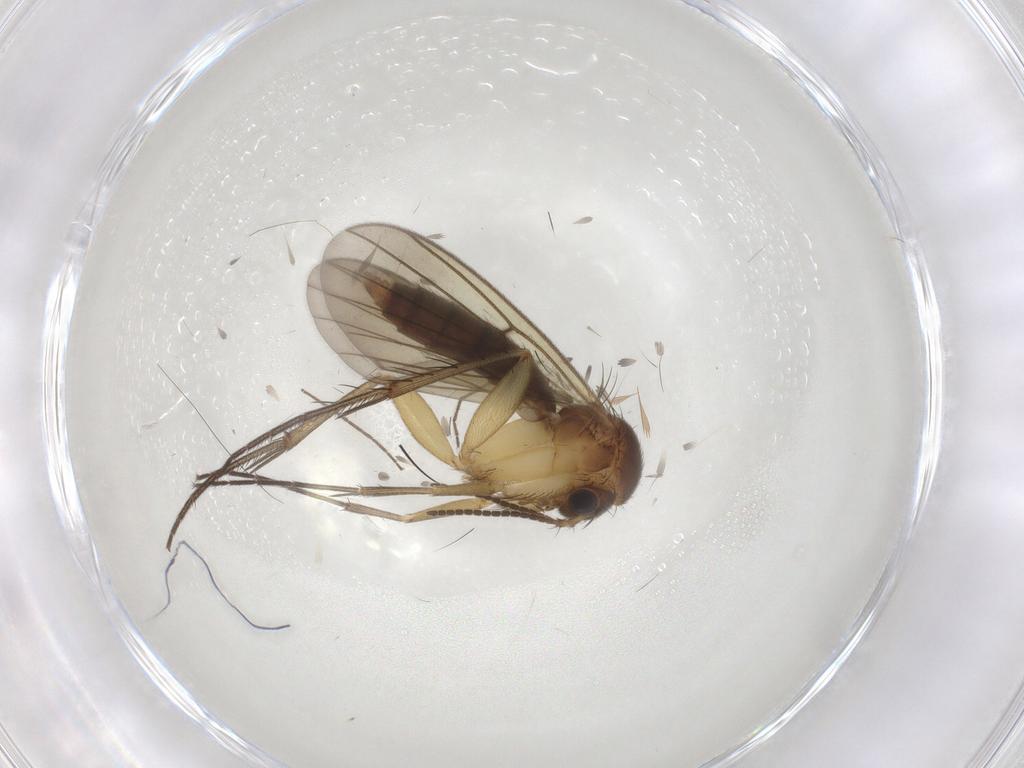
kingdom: Animalia
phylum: Arthropoda
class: Insecta
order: Diptera
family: Mycetophilidae
